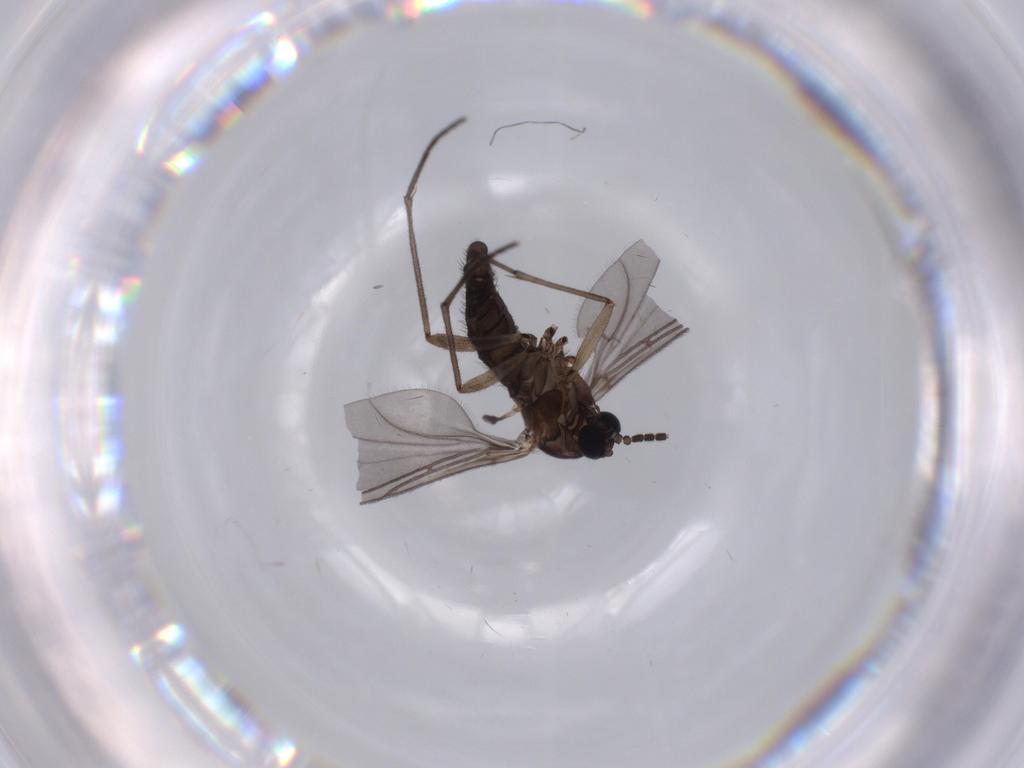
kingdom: Animalia
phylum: Arthropoda
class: Insecta
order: Diptera
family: Sciaridae
